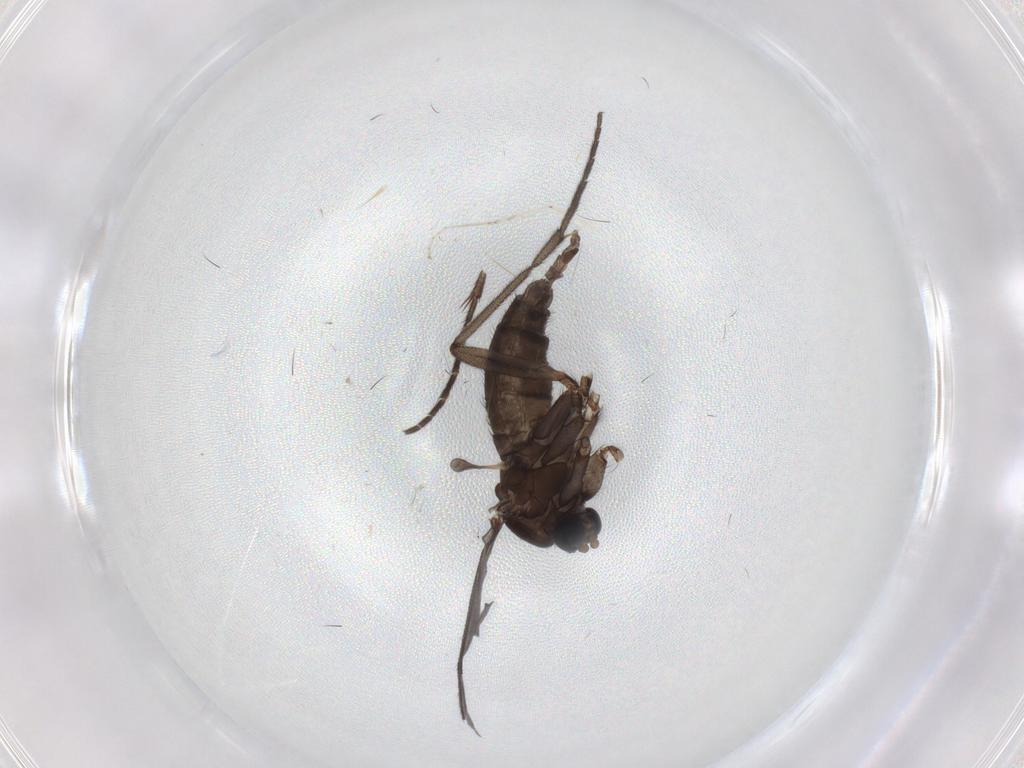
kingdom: Animalia
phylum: Arthropoda
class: Insecta
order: Diptera
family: Sciaridae
